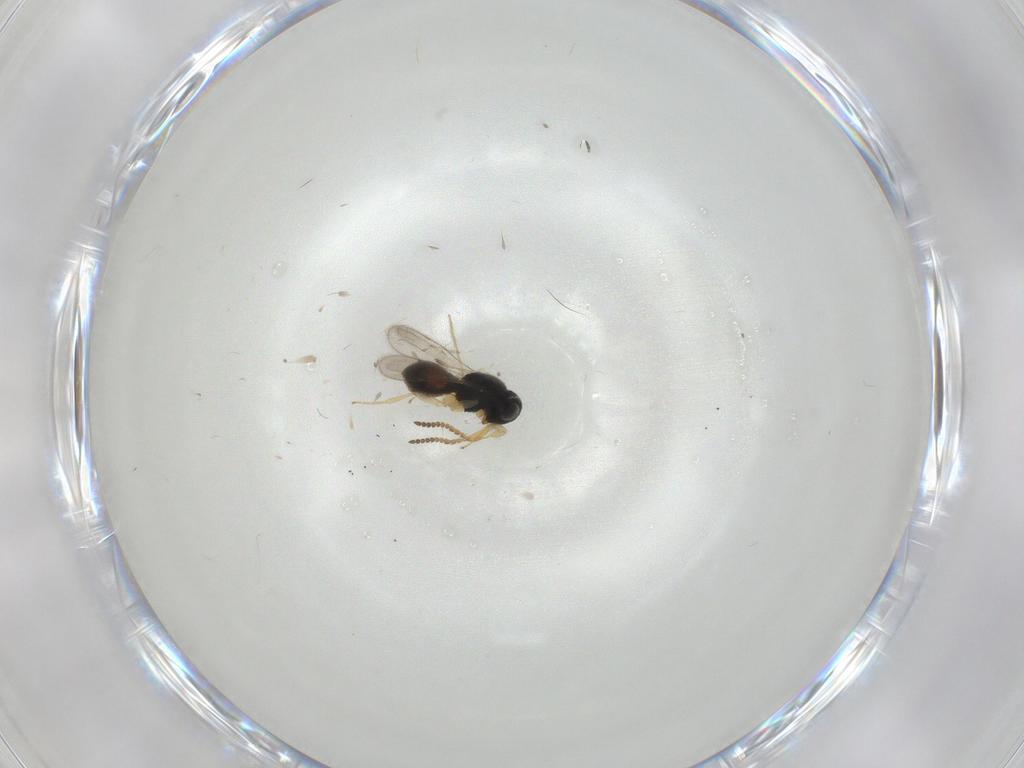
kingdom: Animalia
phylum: Arthropoda
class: Insecta
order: Hymenoptera
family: Scelionidae
